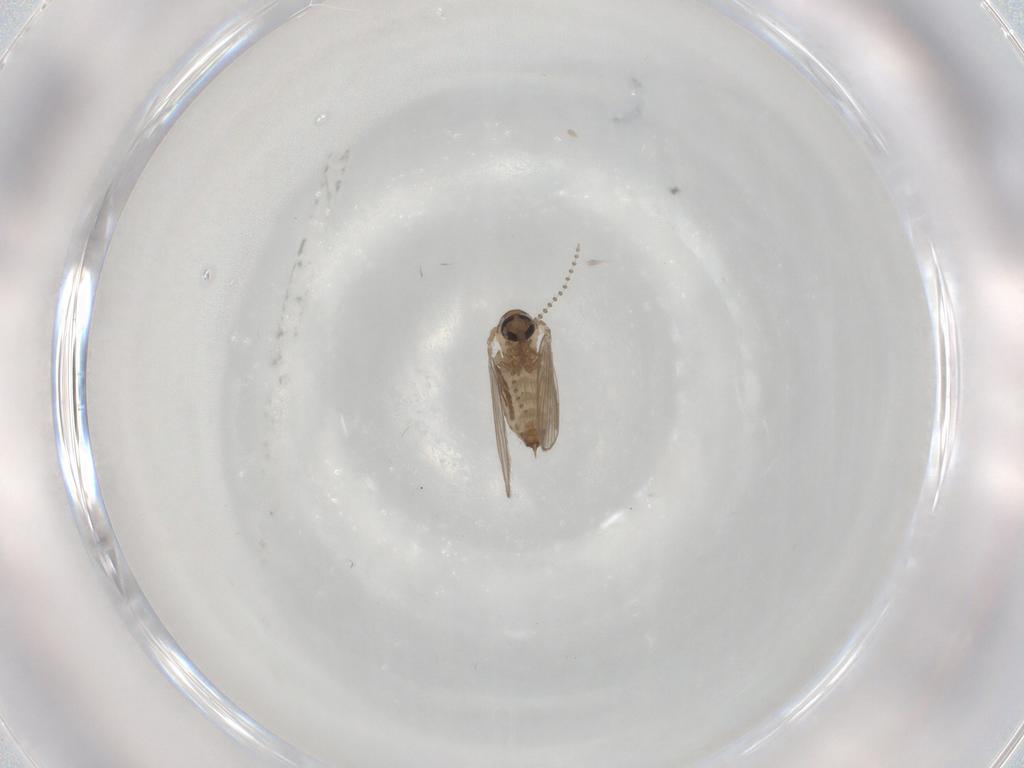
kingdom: Animalia
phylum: Arthropoda
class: Insecta
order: Diptera
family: Psychodidae
